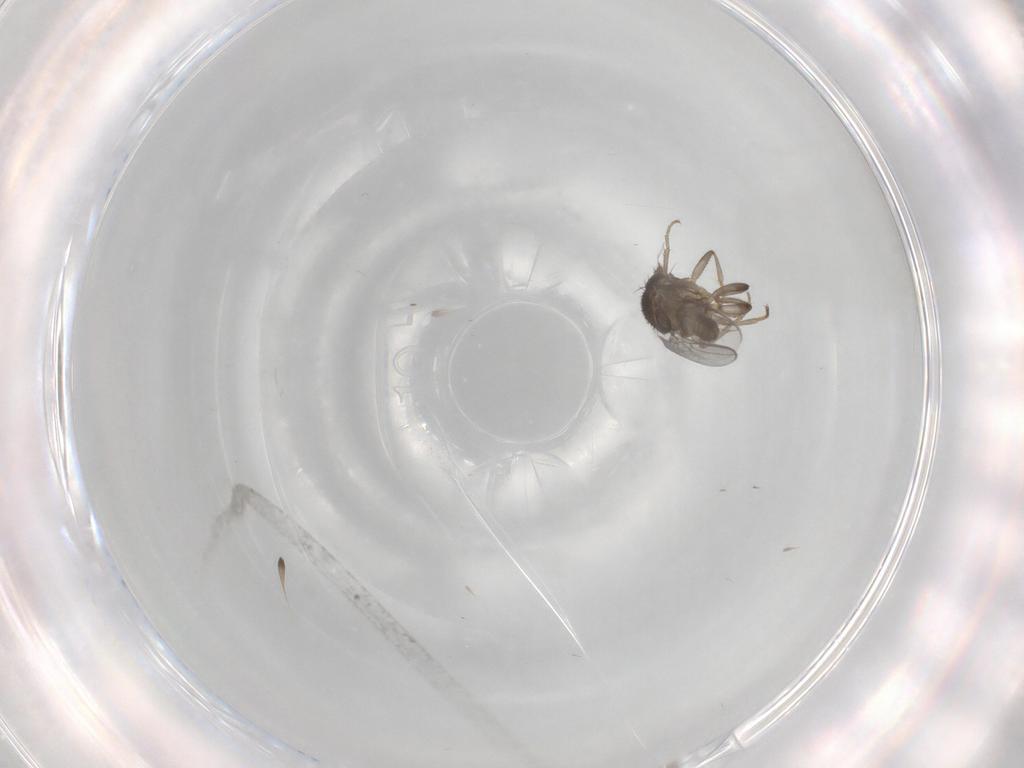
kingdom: Animalia
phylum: Arthropoda
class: Insecta
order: Diptera
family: Sphaeroceridae
